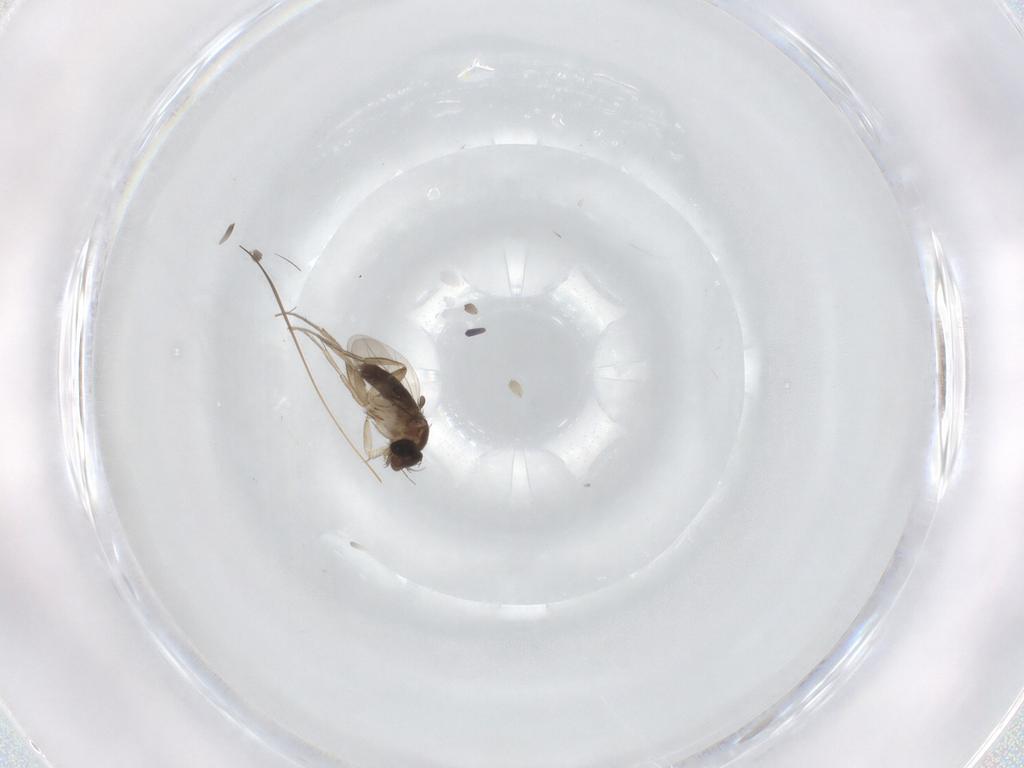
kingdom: Animalia
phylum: Arthropoda
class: Insecta
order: Diptera
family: Phoridae
